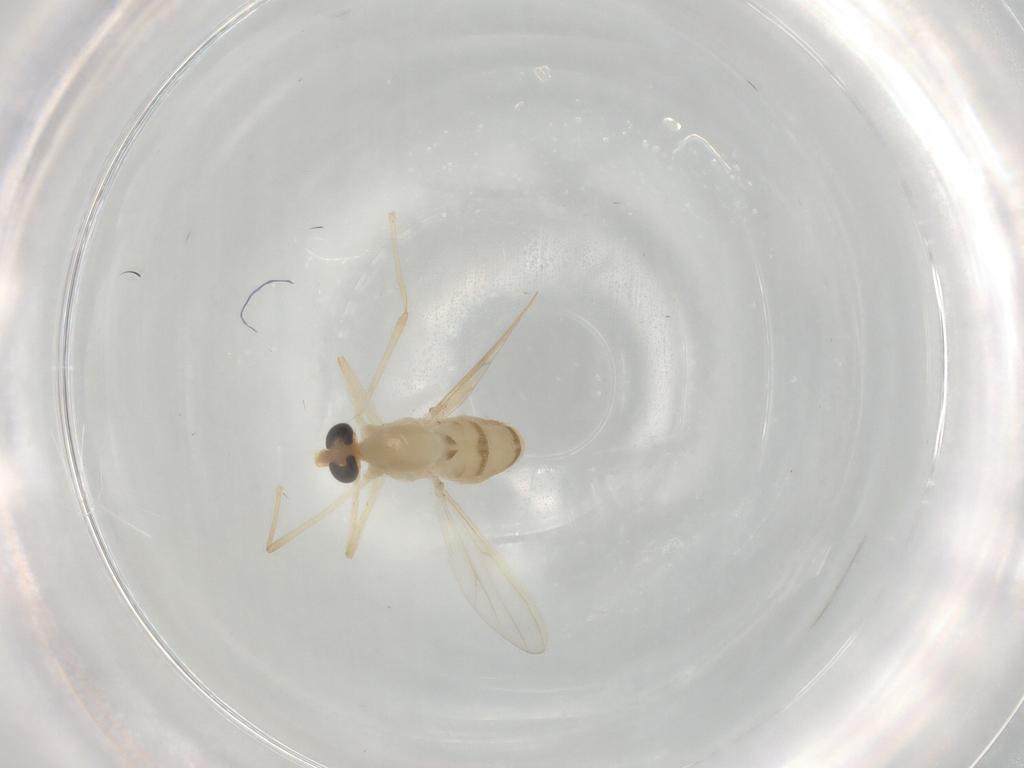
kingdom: Animalia
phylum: Arthropoda
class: Insecta
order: Diptera
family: Chironomidae
